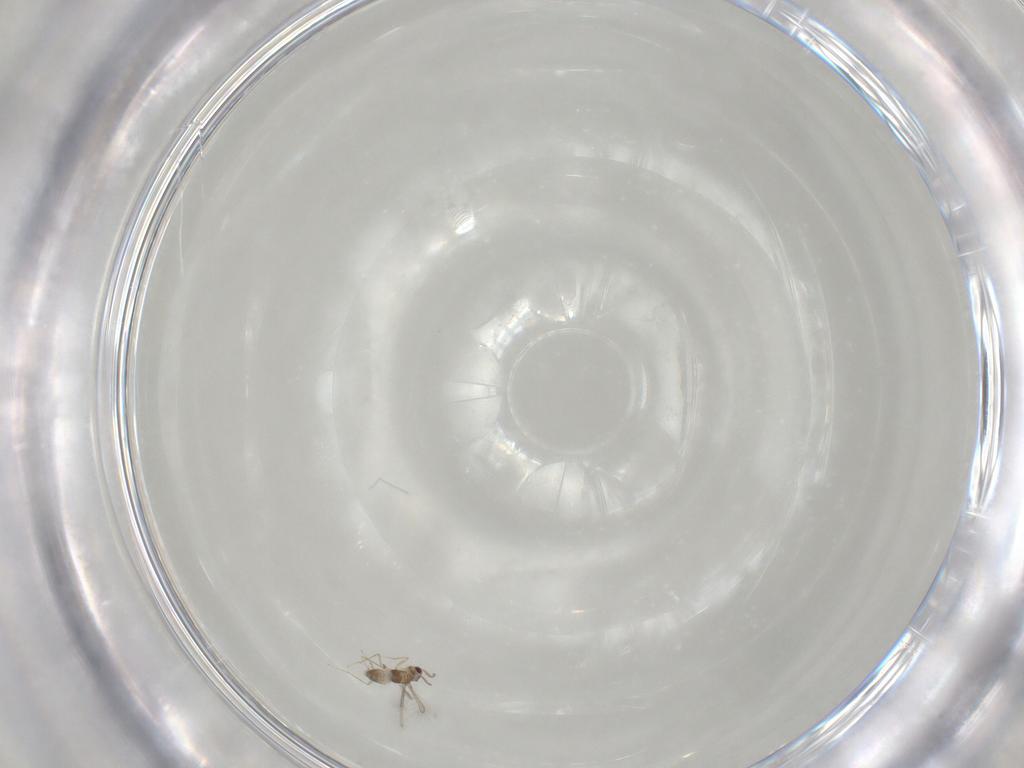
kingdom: Animalia
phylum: Arthropoda
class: Insecta
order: Hymenoptera
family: Mymaridae
